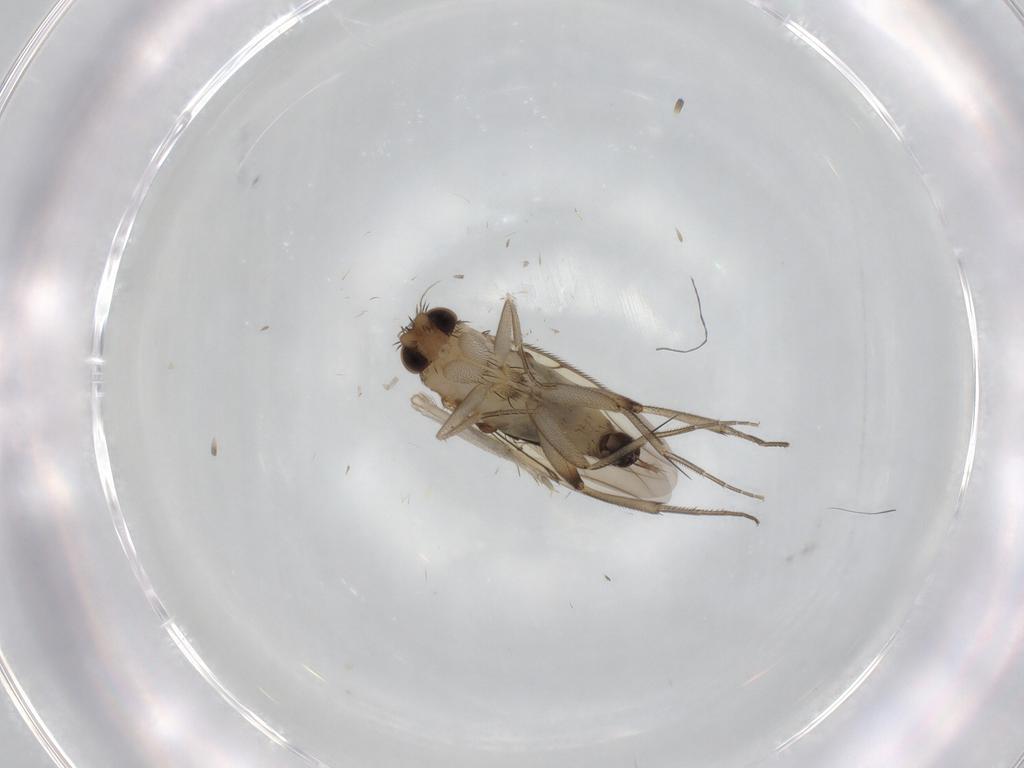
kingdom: Animalia
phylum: Arthropoda
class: Insecta
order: Diptera
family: Phoridae
